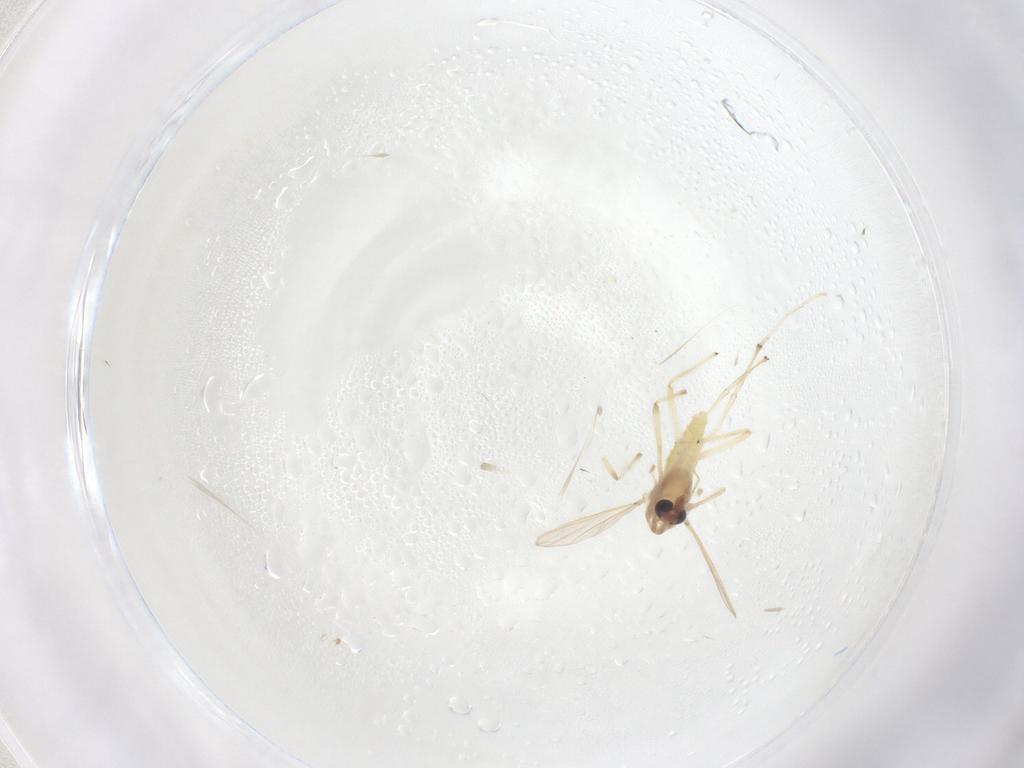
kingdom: Animalia
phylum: Arthropoda
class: Insecta
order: Diptera
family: Chironomidae
